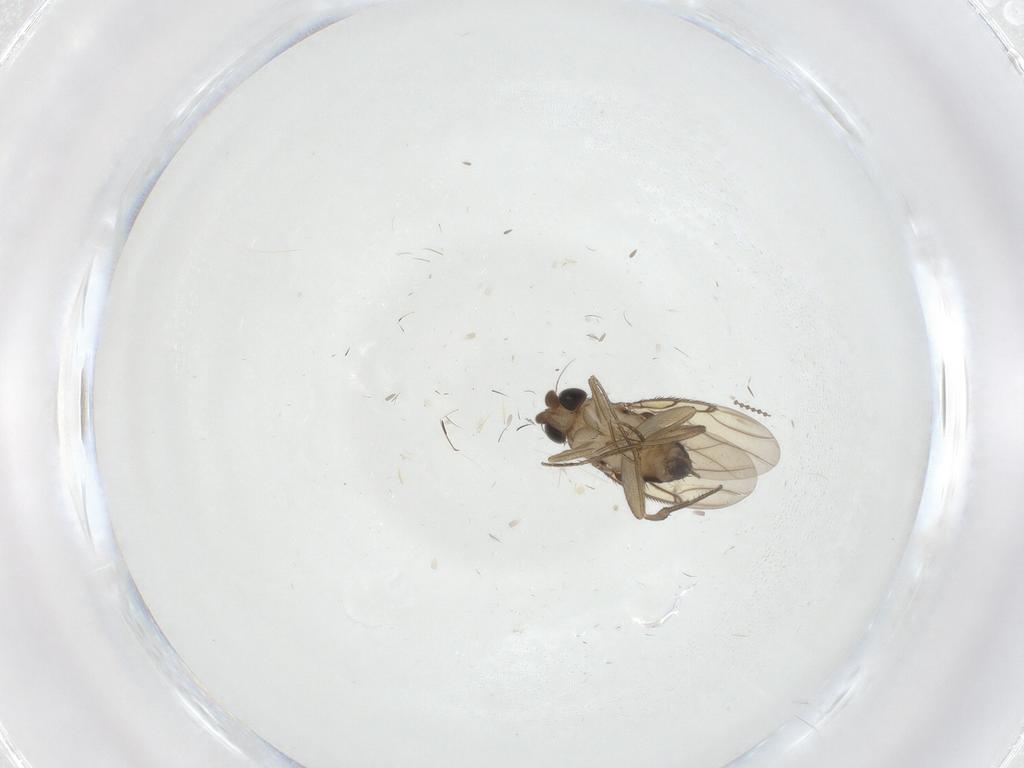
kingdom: Animalia
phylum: Arthropoda
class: Insecta
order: Diptera
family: Phoridae
